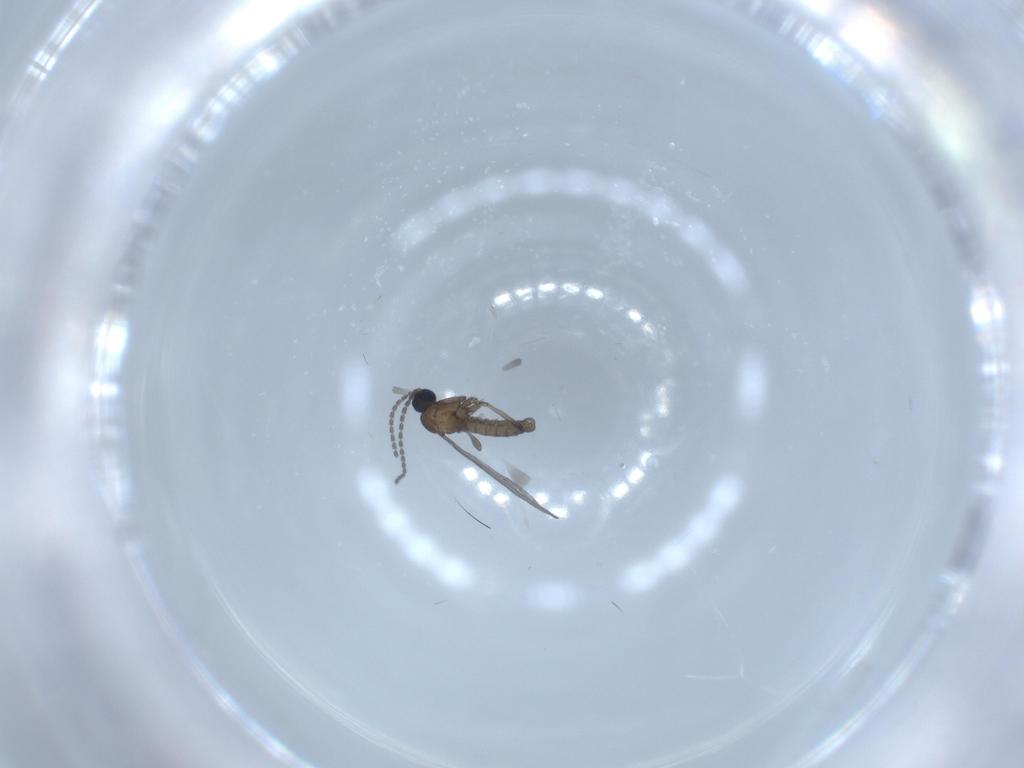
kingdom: Animalia
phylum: Arthropoda
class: Insecta
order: Diptera
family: Sciaridae
